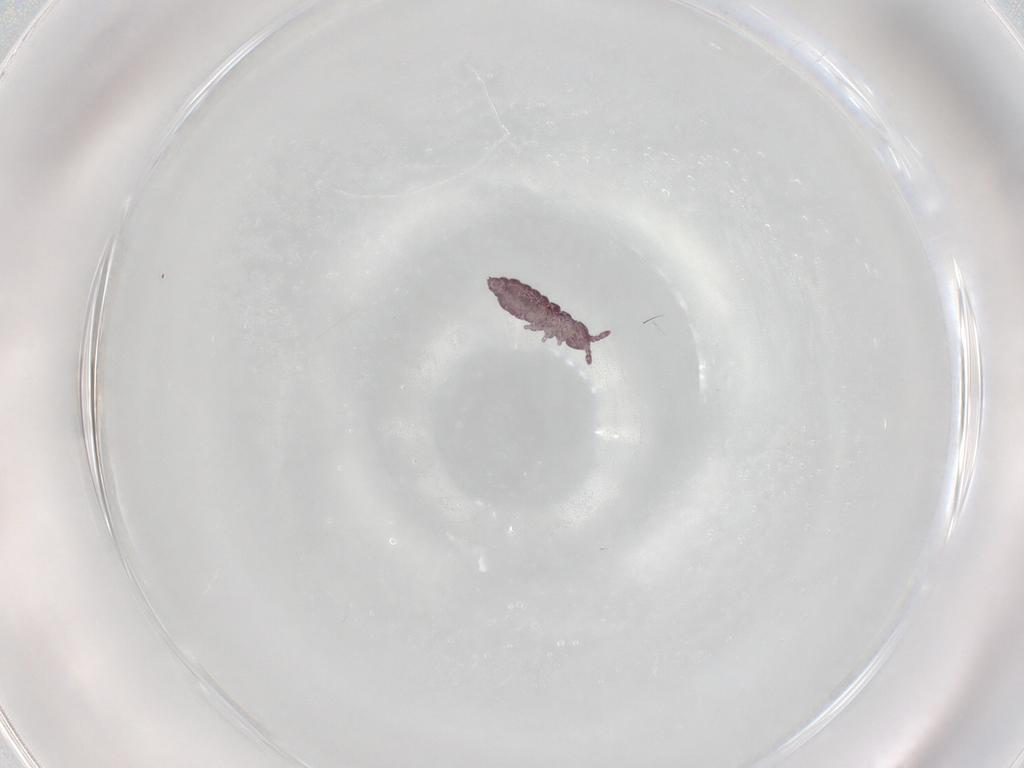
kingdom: Animalia
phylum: Arthropoda
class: Collembola
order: Poduromorpha
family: Hypogastruridae
